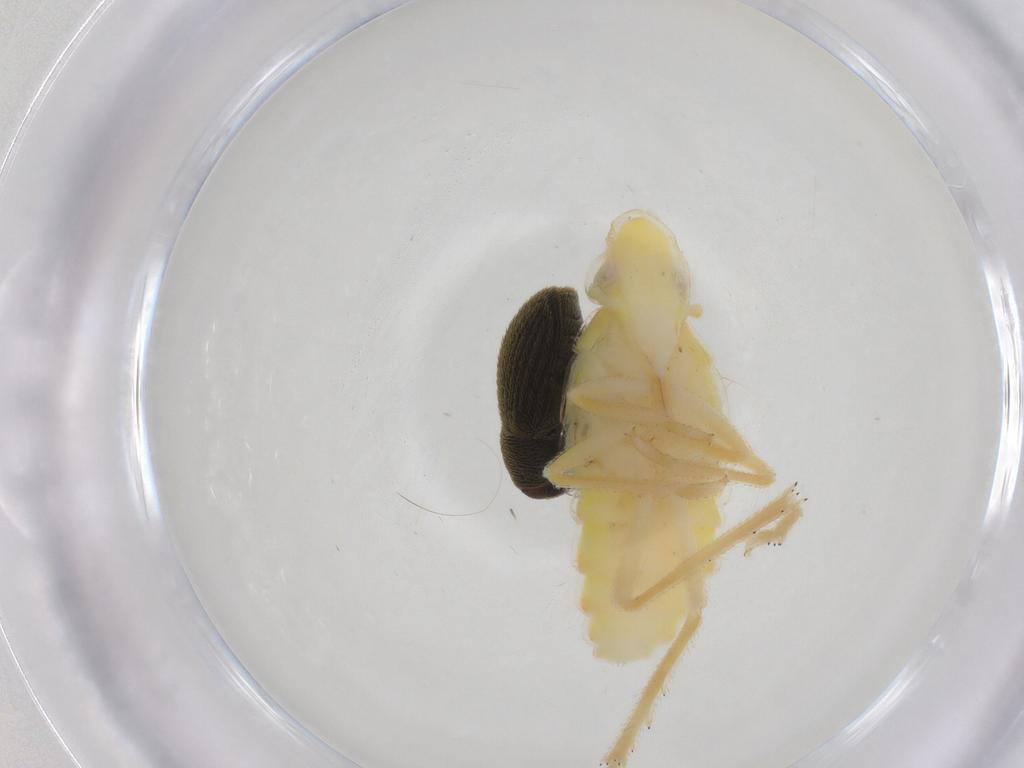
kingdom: Animalia
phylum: Arthropoda
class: Insecta
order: Hemiptera
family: Tropiduchidae
